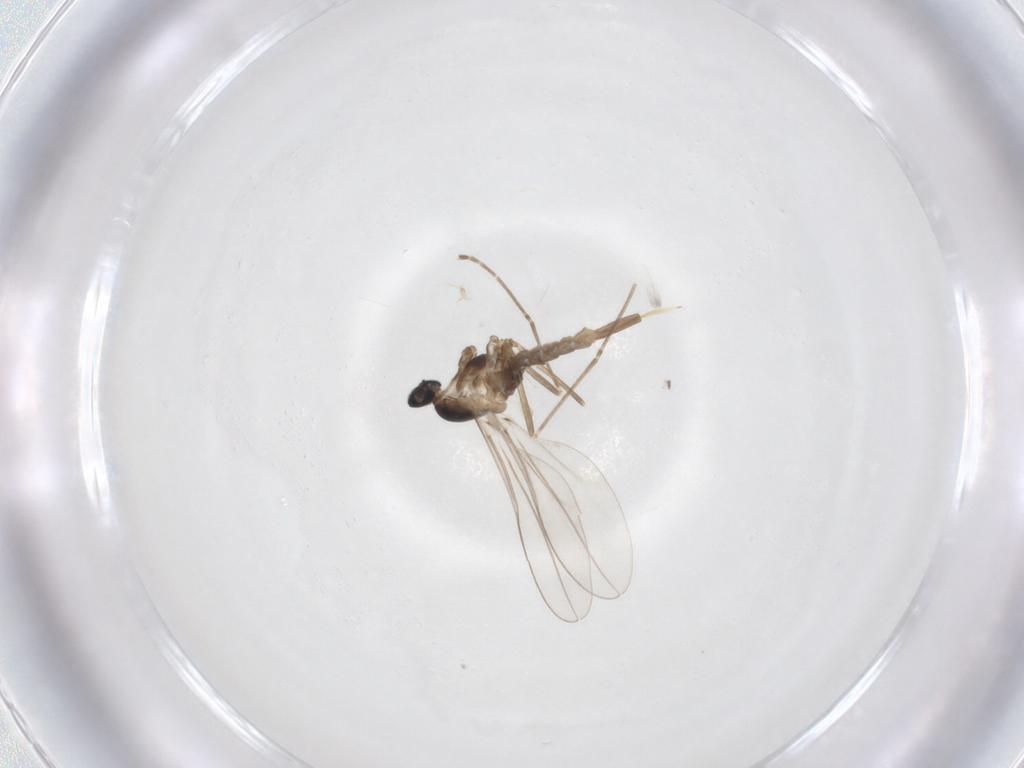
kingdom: Animalia
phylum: Arthropoda
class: Insecta
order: Diptera
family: Cecidomyiidae
